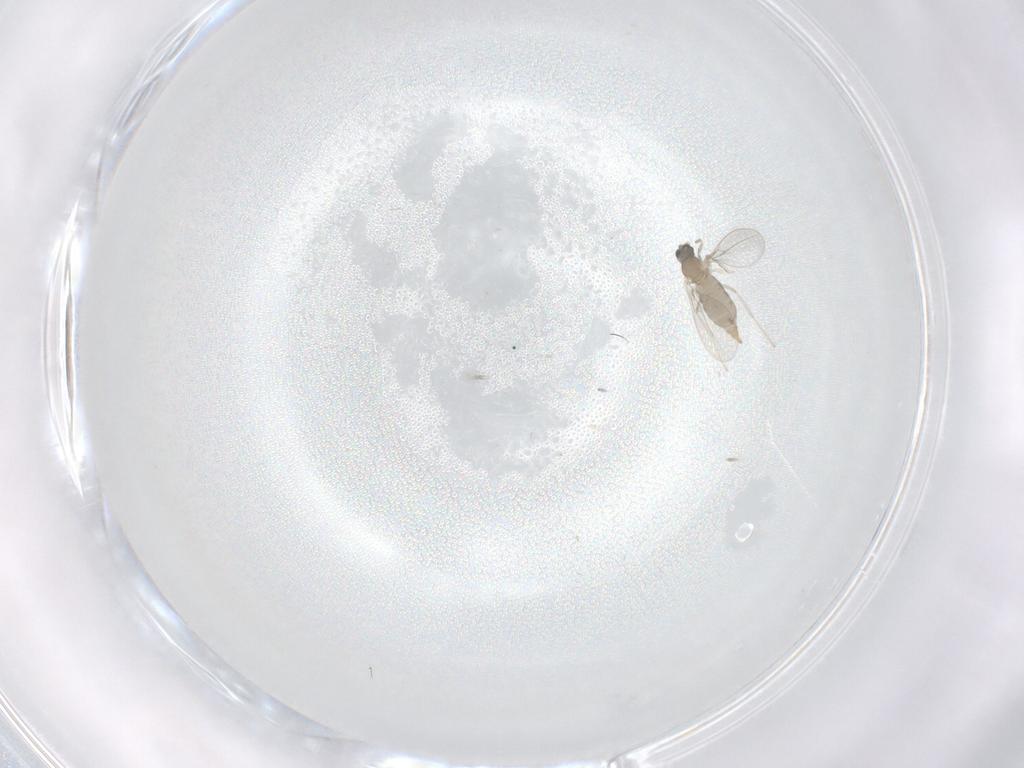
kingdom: Animalia
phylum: Arthropoda
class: Insecta
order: Diptera
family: Cecidomyiidae
